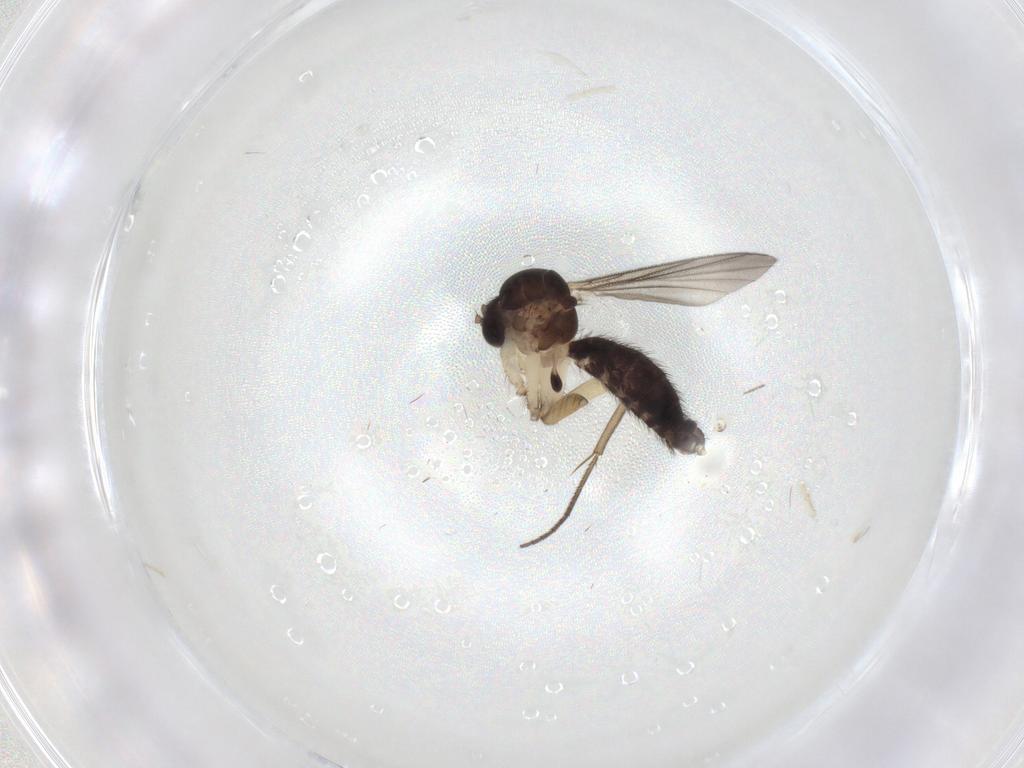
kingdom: Animalia
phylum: Arthropoda
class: Insecta
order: Diptera
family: Mycetophilidae
